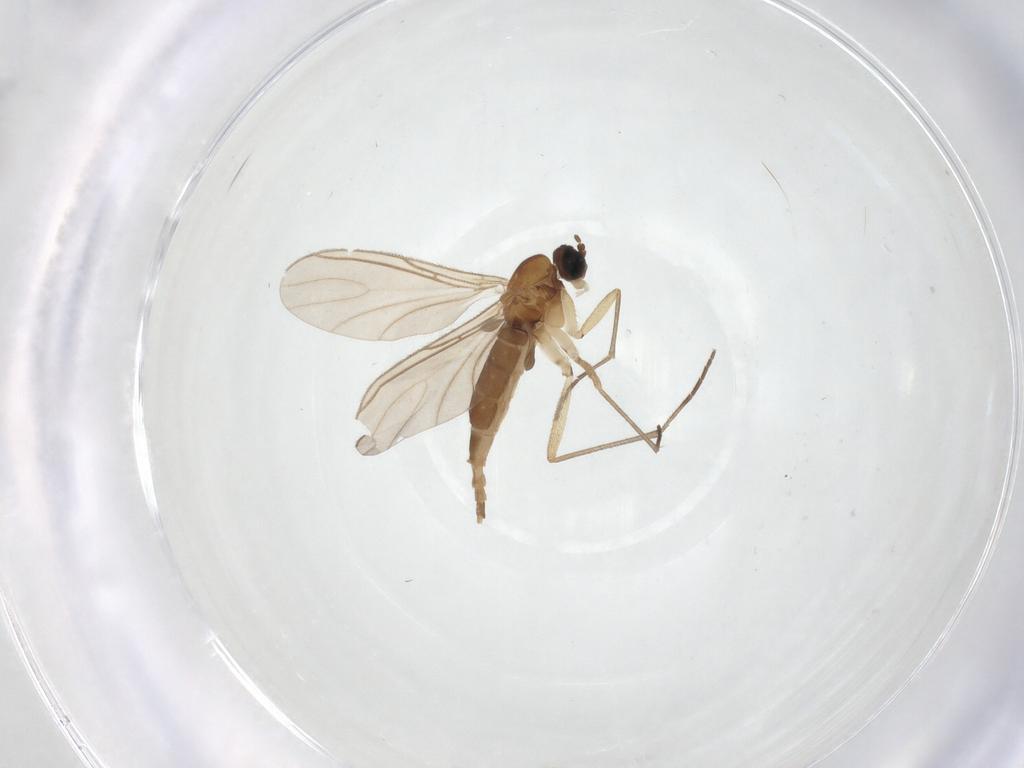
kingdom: Animalia
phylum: Arthropoda
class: Insecta
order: Diptera
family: Sciaridae
